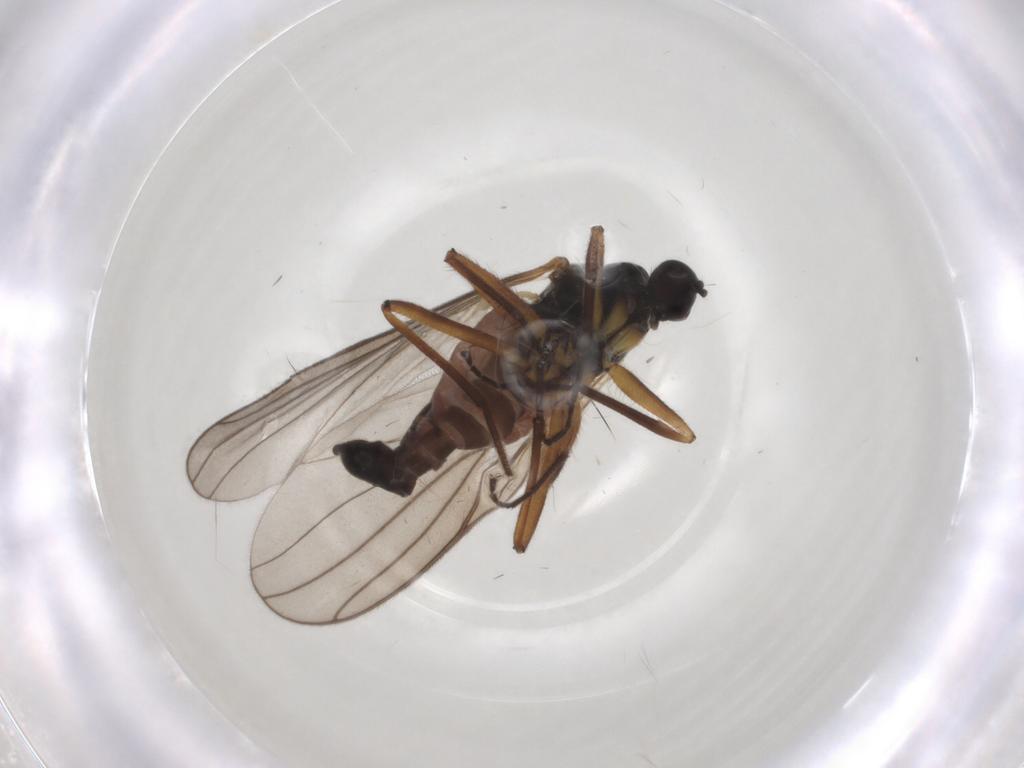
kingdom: Animalia
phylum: Arthropoda
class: Insecta
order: Diptera
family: Hybotidae
